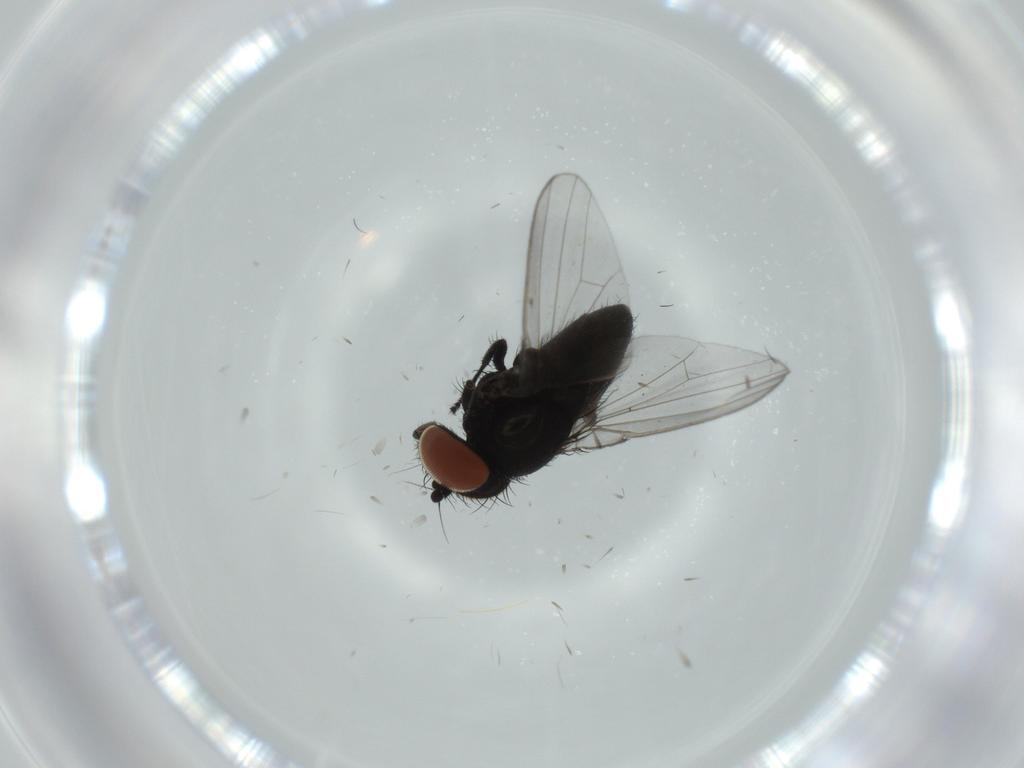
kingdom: Animalia
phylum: Arthropoda
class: Insecta
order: Diptera
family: Milichiidae
